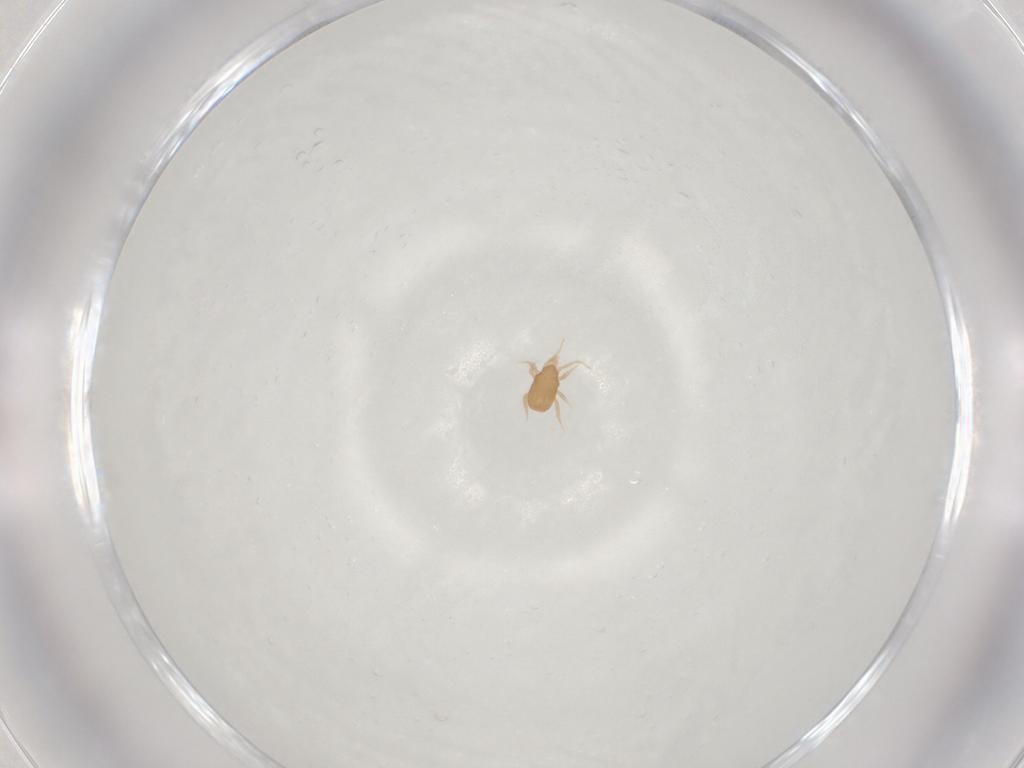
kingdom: Animalia
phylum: Arthropoda
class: Arachnida
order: Mesostigmata
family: Blattisociidae
